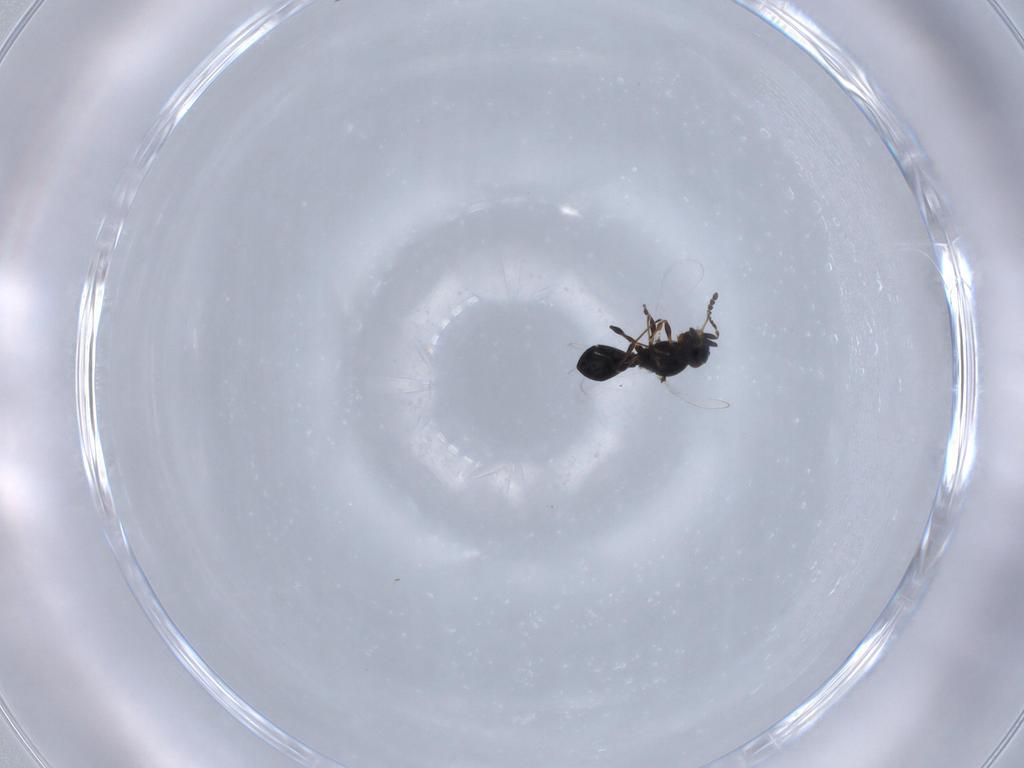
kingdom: Animalia
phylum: Arthropoda
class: Insecta
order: Hymenoptera
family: Platygastridae
